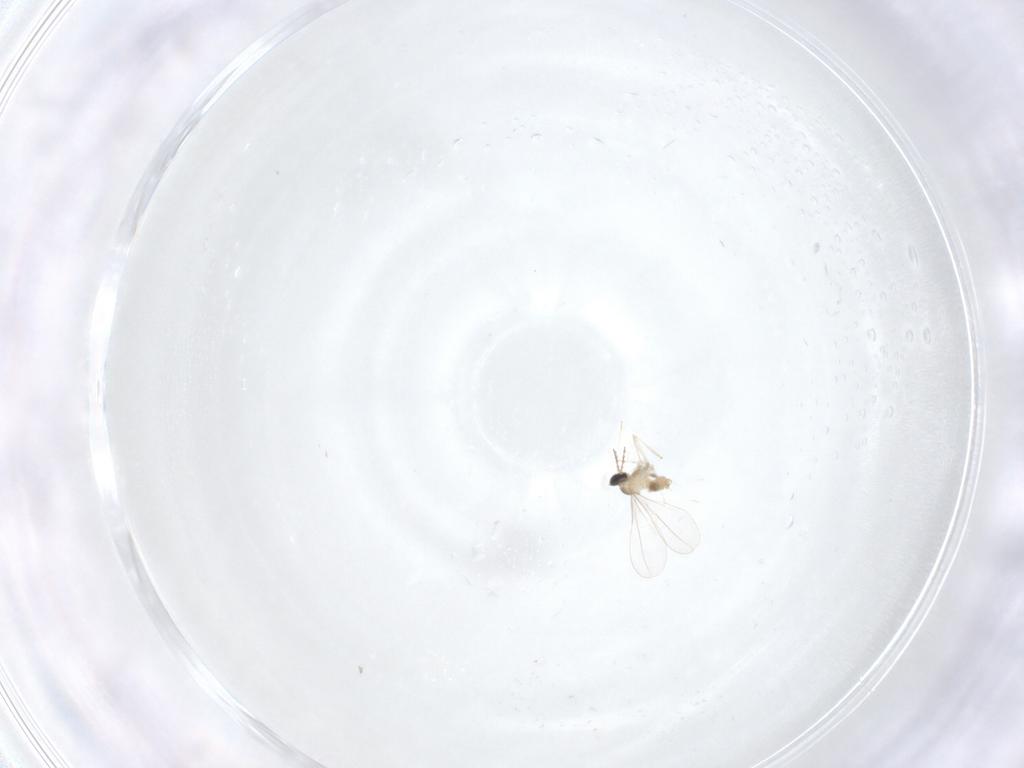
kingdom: Animalia
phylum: Arthropoda
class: Insecta
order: Diptera
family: Cecidomyiidae
